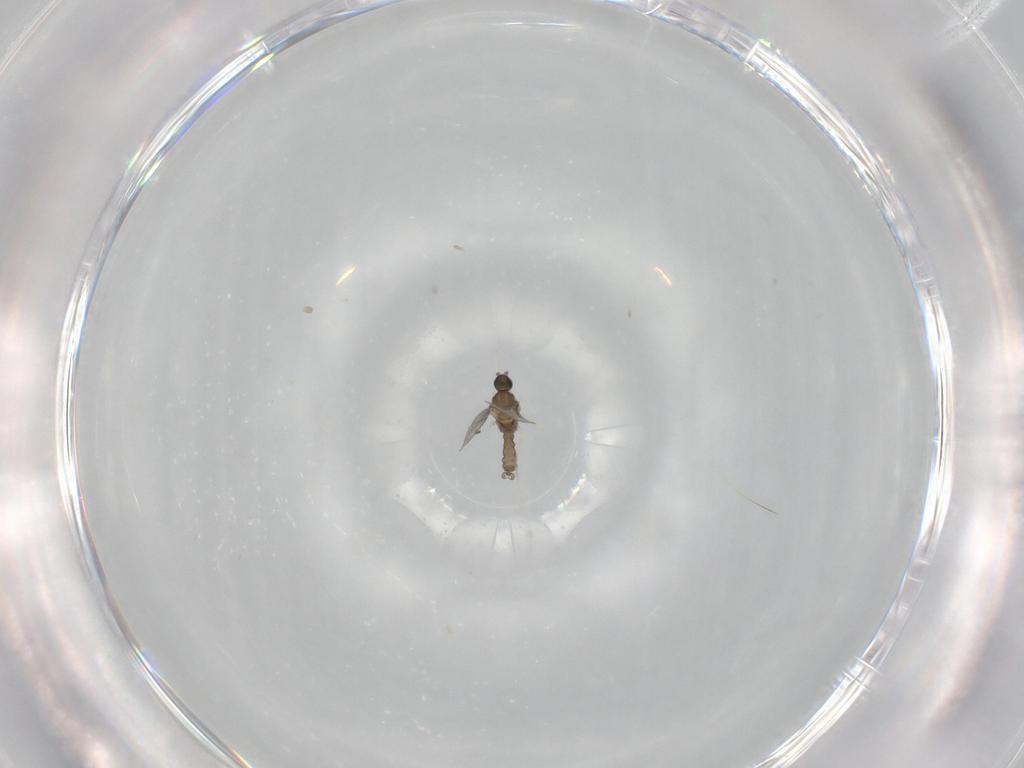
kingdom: Animalia
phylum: Arthropoda
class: Insecta
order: Diptera
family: Cecidomyiidae
